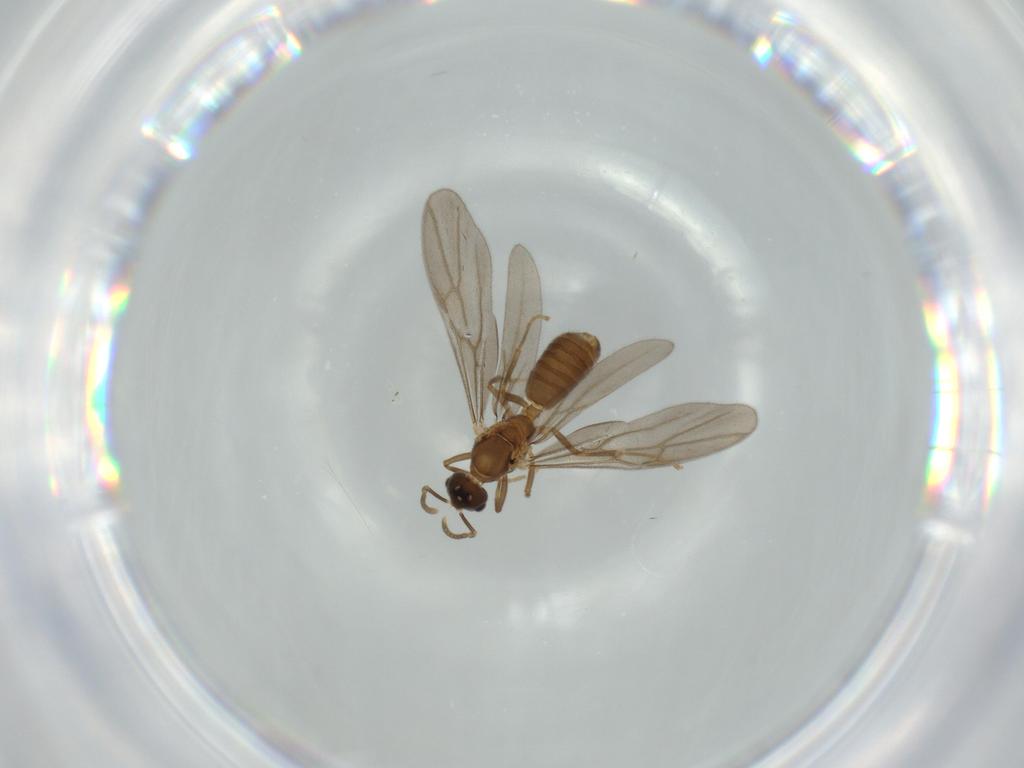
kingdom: Animalia
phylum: Arthropoda
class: Insecta
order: Hymenoptera
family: Formicidae
